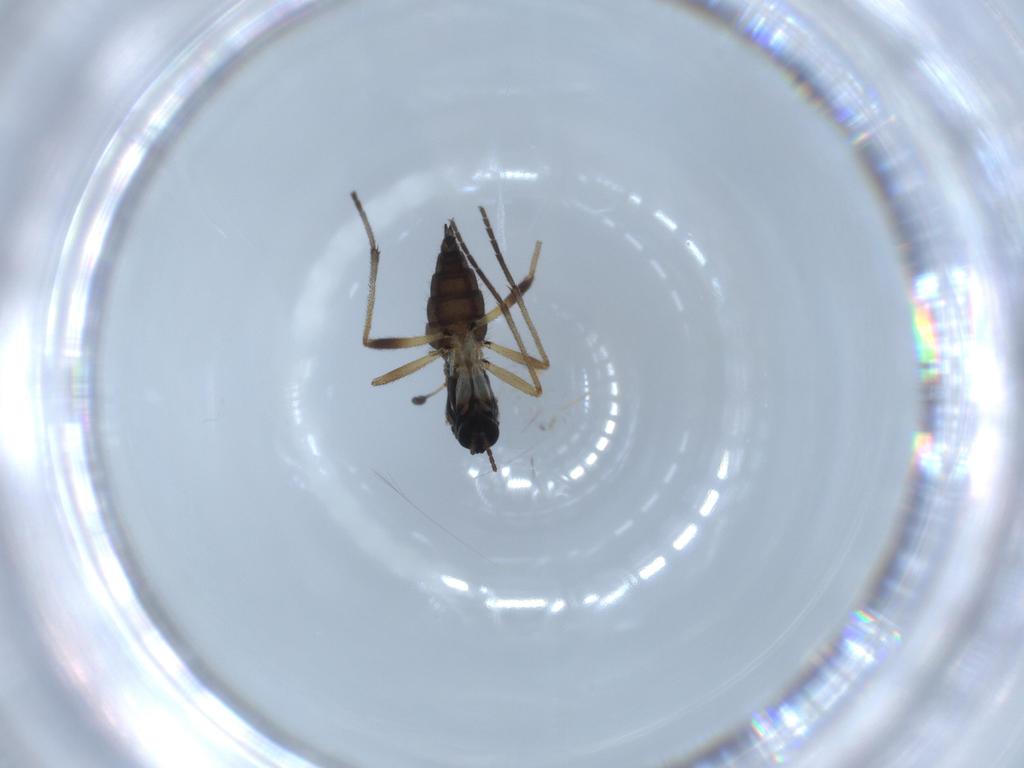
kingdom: Animalia
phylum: Arthropoda
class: Insecta
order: Diptera
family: Sciaridae
